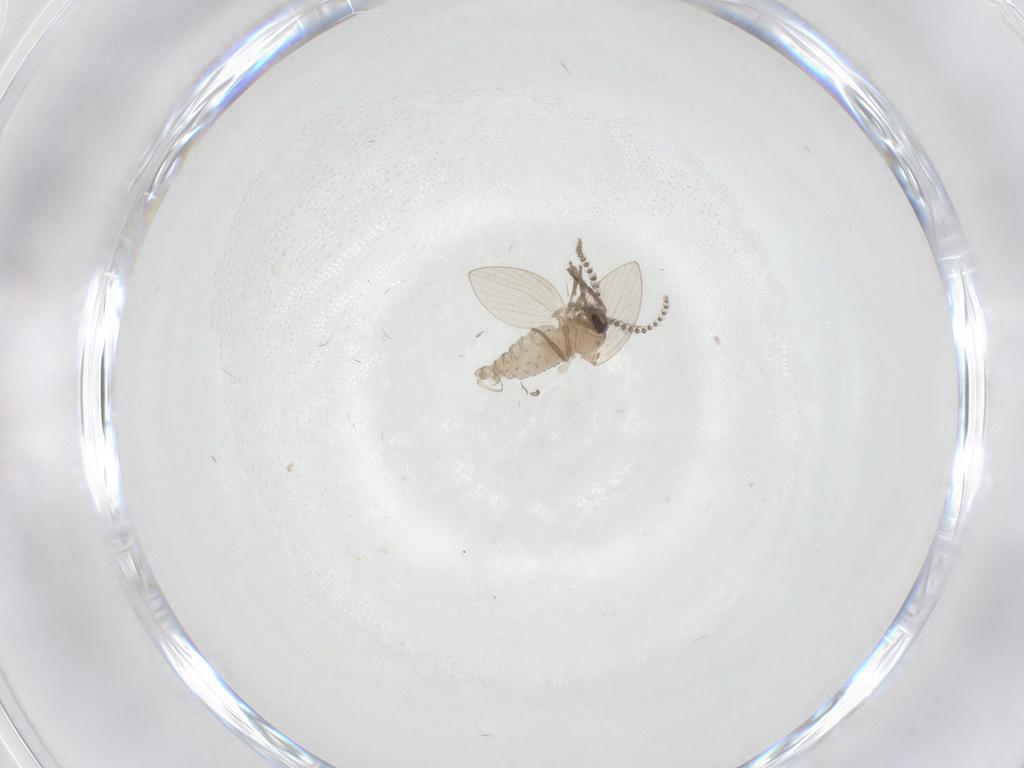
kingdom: Animalia
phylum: Arthropoda
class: Insecta
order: Diptera
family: Psychodidae
